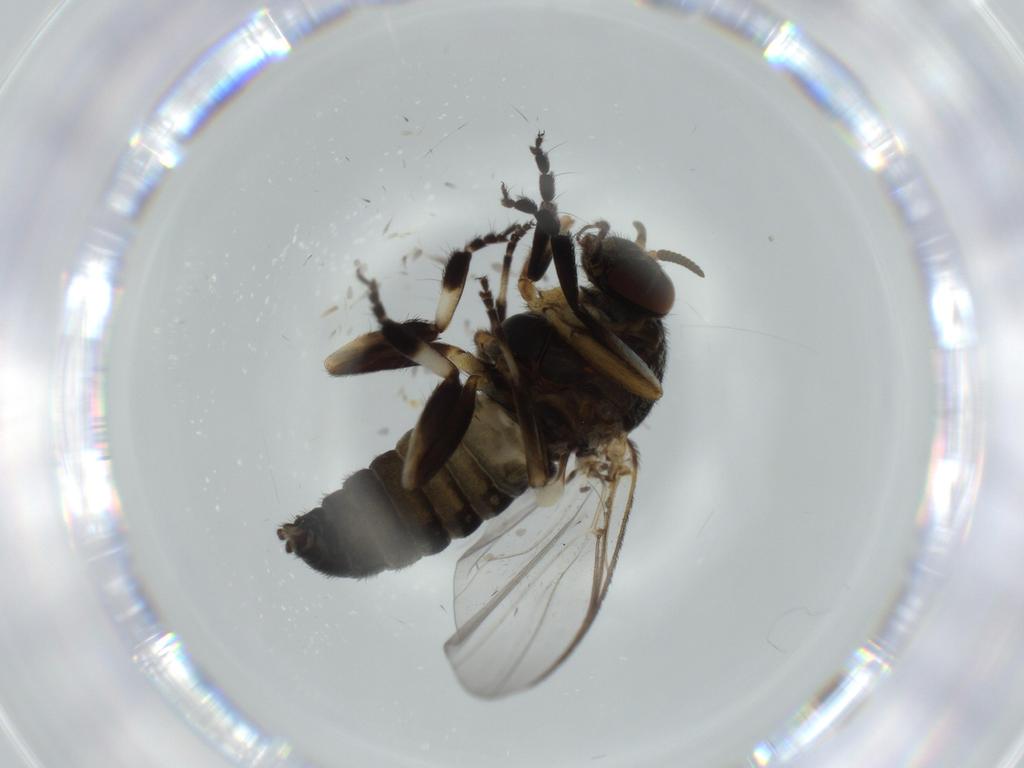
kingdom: Animalia
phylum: Arthropoda
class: Insecta
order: Diptera
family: Phoridae
